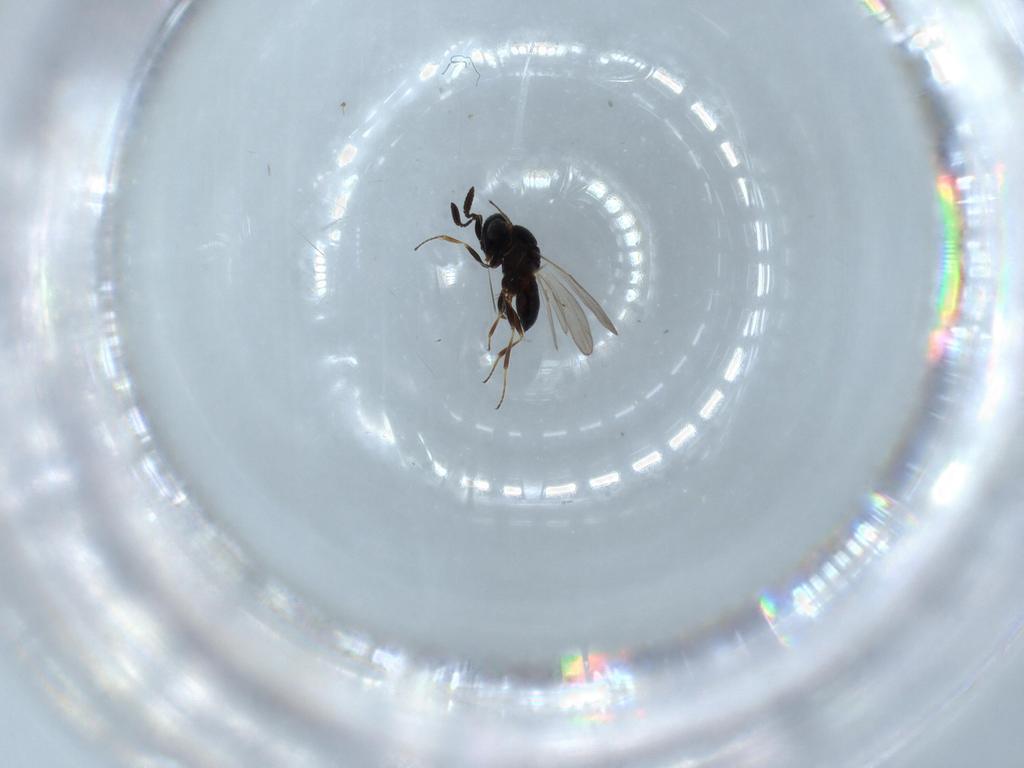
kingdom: Animalia
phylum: Arthropoda
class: Insecta
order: Hymenoptera
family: Scelionidae
